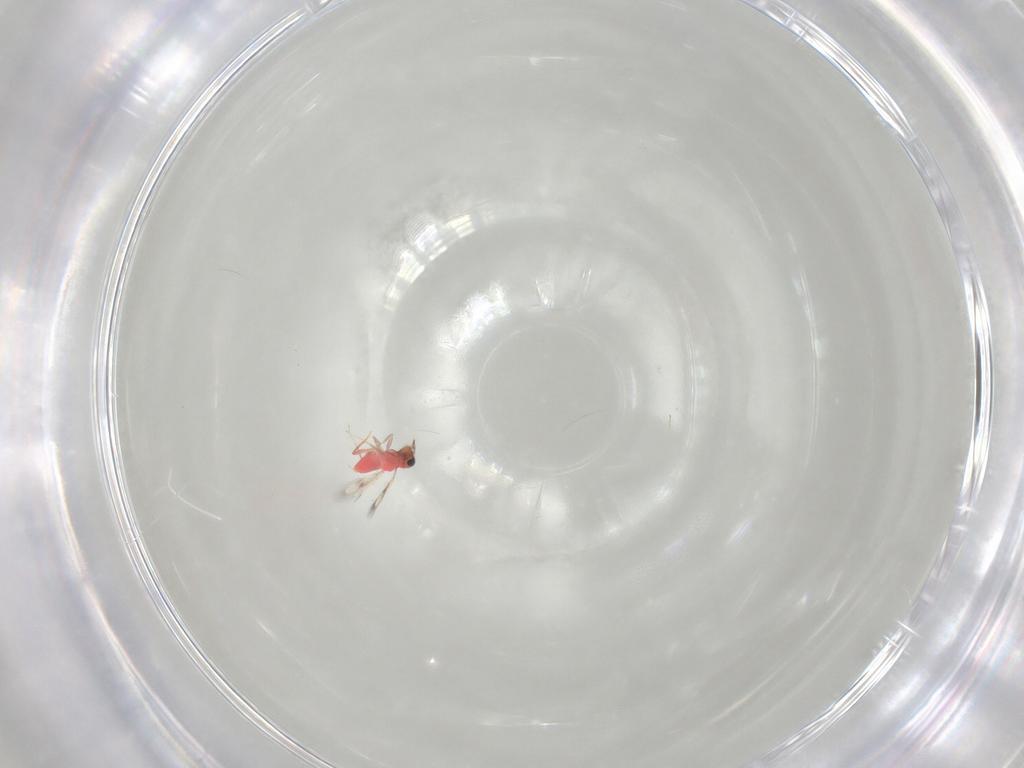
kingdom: Animalia
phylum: Arthropoda
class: Insecta
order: Hymenoptera
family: Trichogrammatidae
